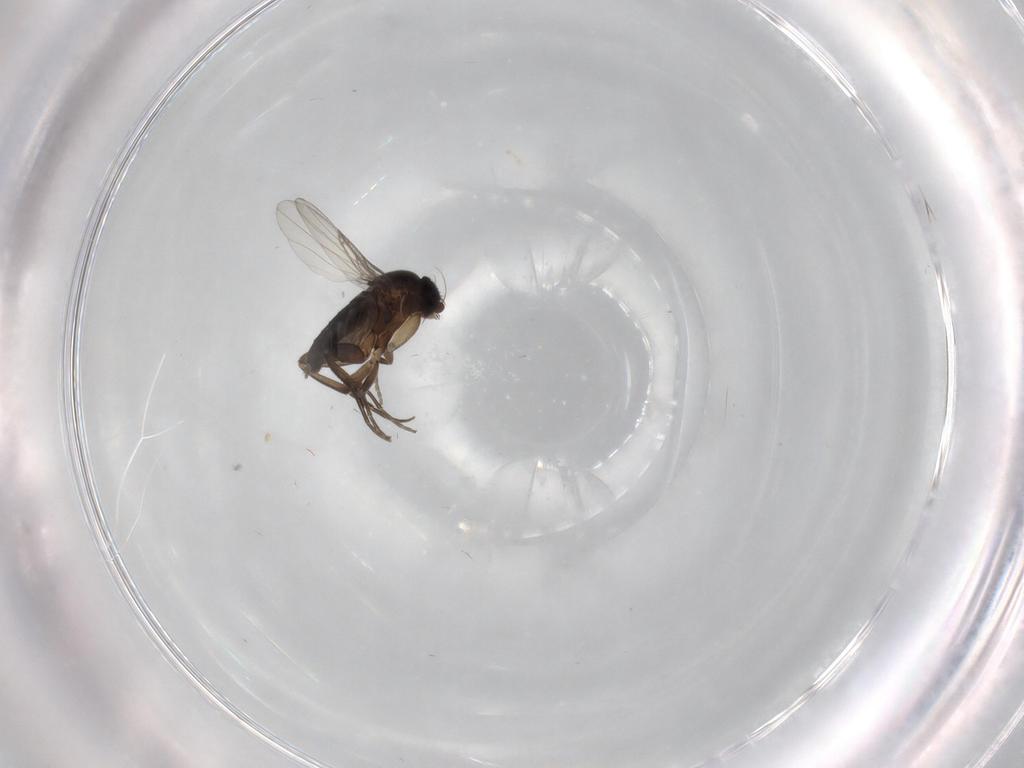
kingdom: Animalia
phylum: Arthropoda
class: Insecta
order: Diptera
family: Phoridae
